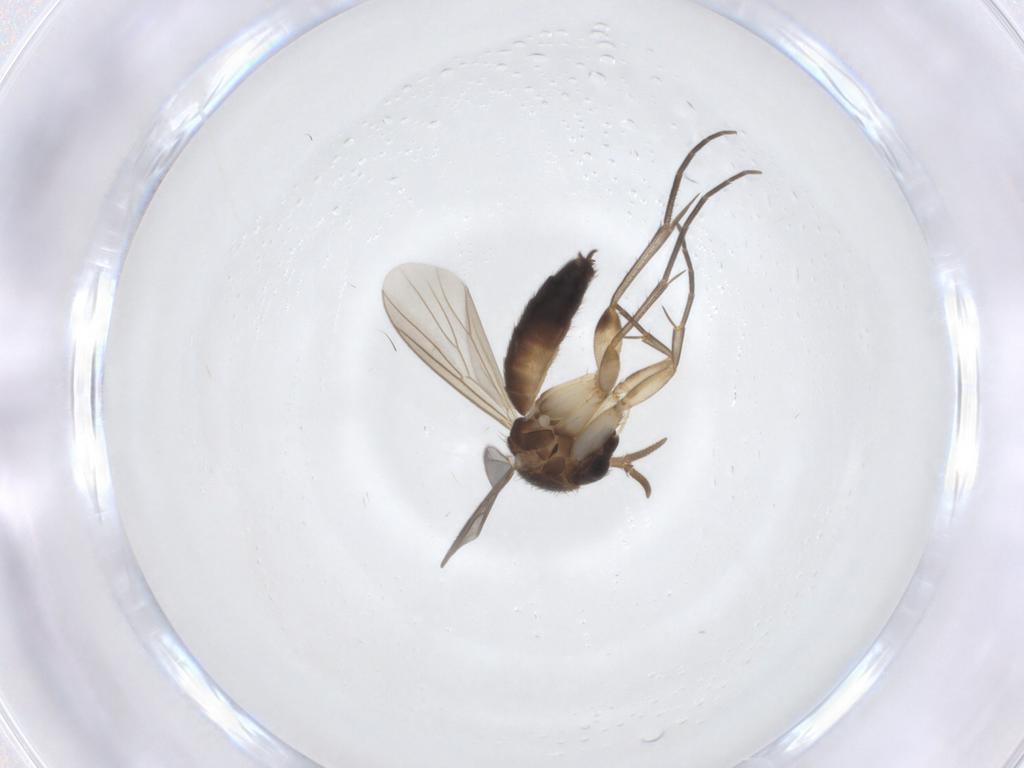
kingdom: Animalia
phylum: Arthropoda
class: Insecta
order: Diptera
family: Mycetophilidae
